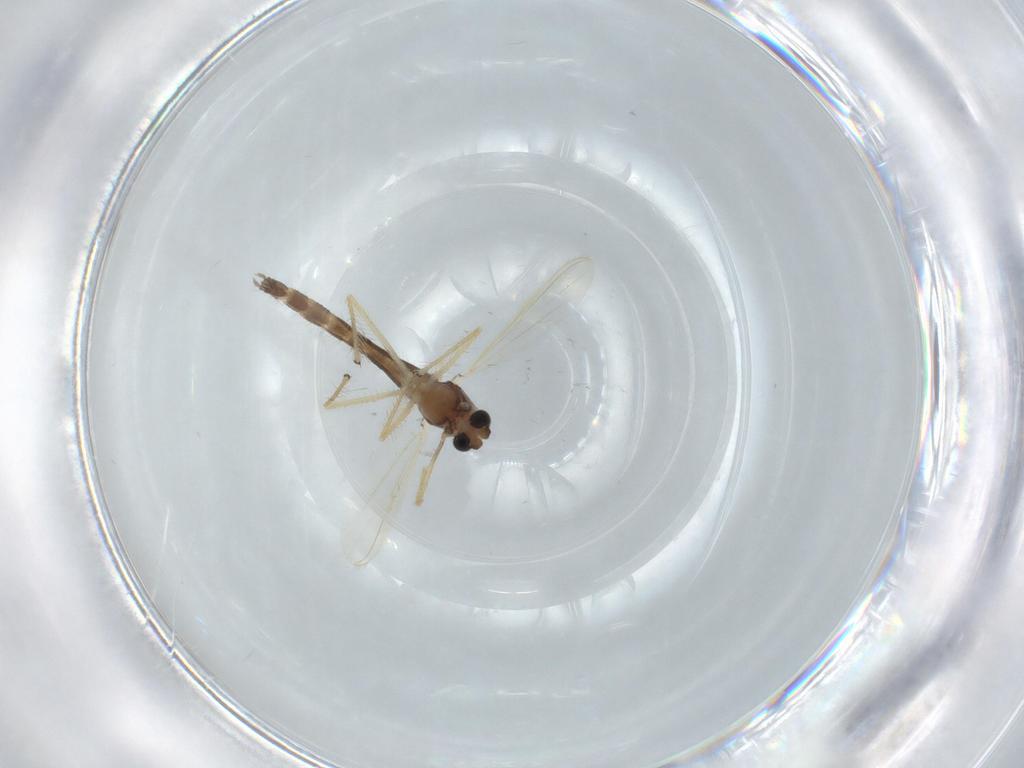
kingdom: Animalia
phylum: Arthropoda
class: Insecta
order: Diptera
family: Chironomidae
